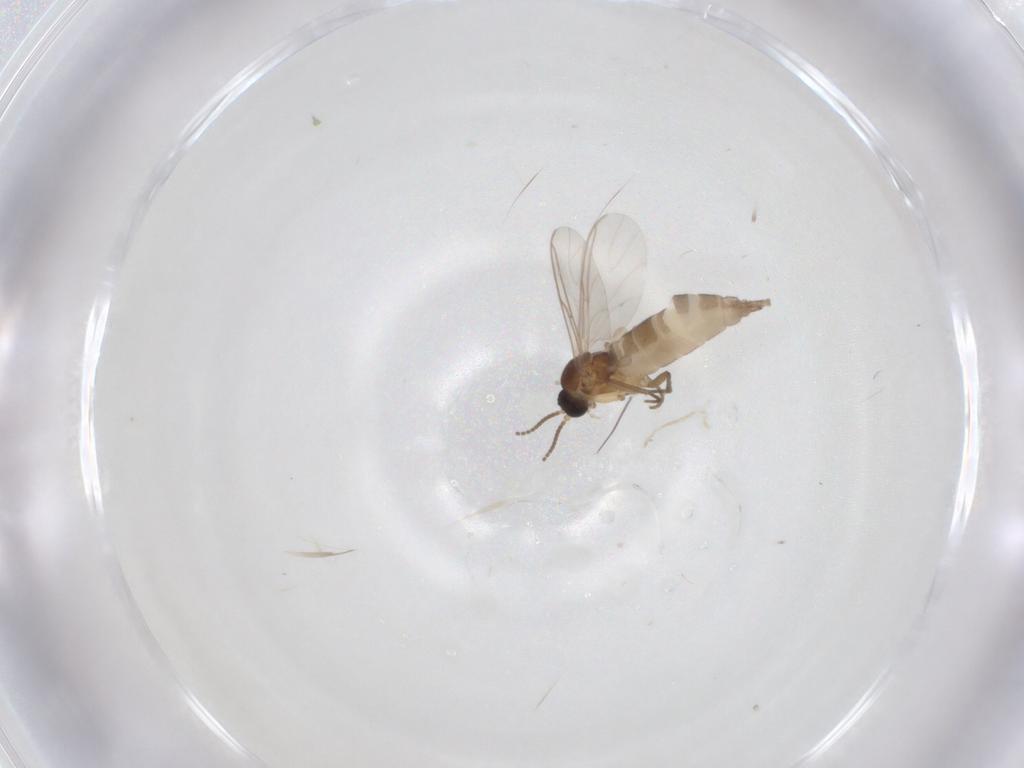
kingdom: Animalia
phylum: Arthropoda
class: Insecta
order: Diptera
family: Sciaridae
